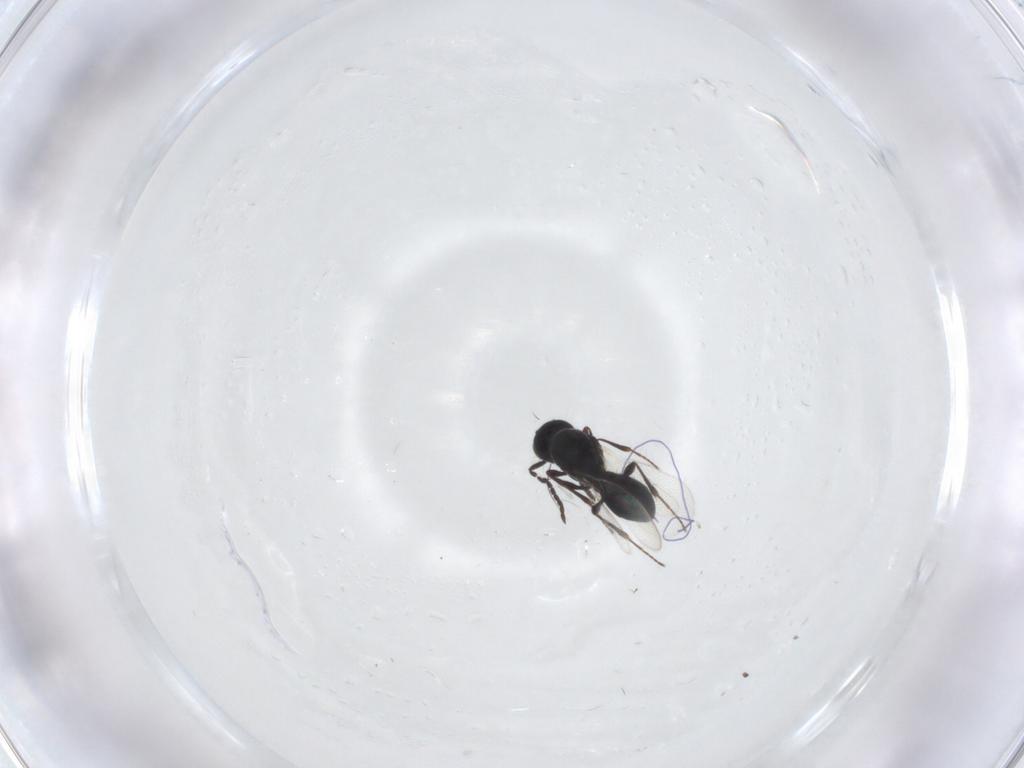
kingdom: Animalia
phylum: Arthropoda
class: Insecta
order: Hymenoptera
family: Platygastridae
